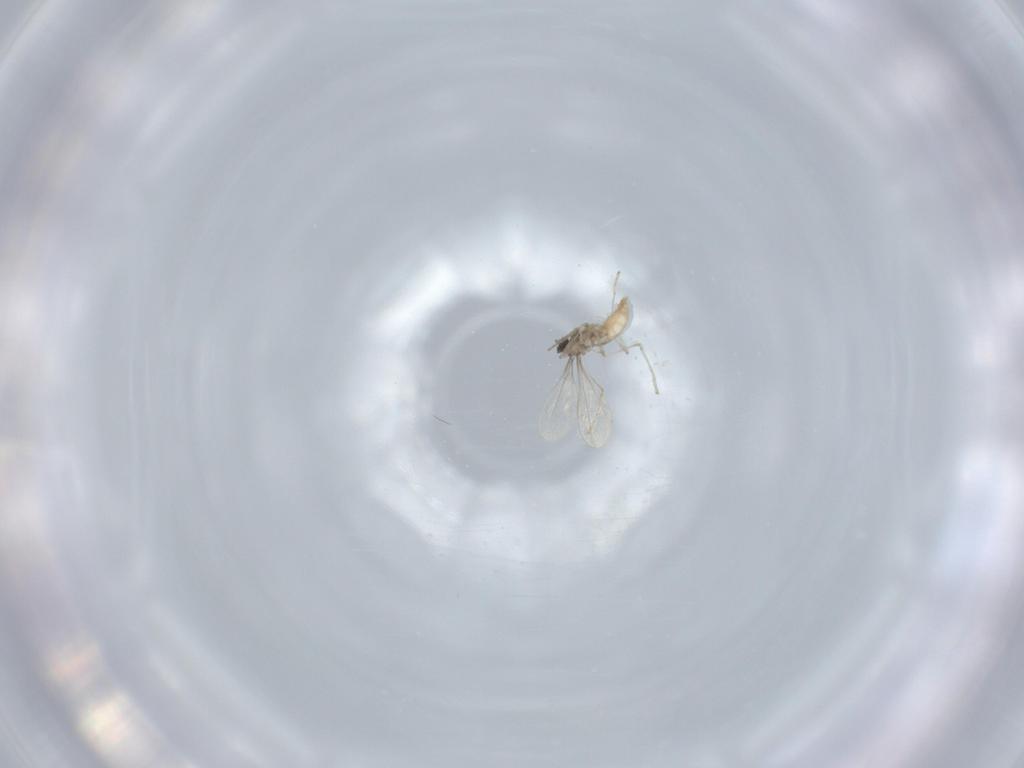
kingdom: Animalia
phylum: Arthropoda
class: Insecta
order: Diptera
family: Cecidomyiidae
